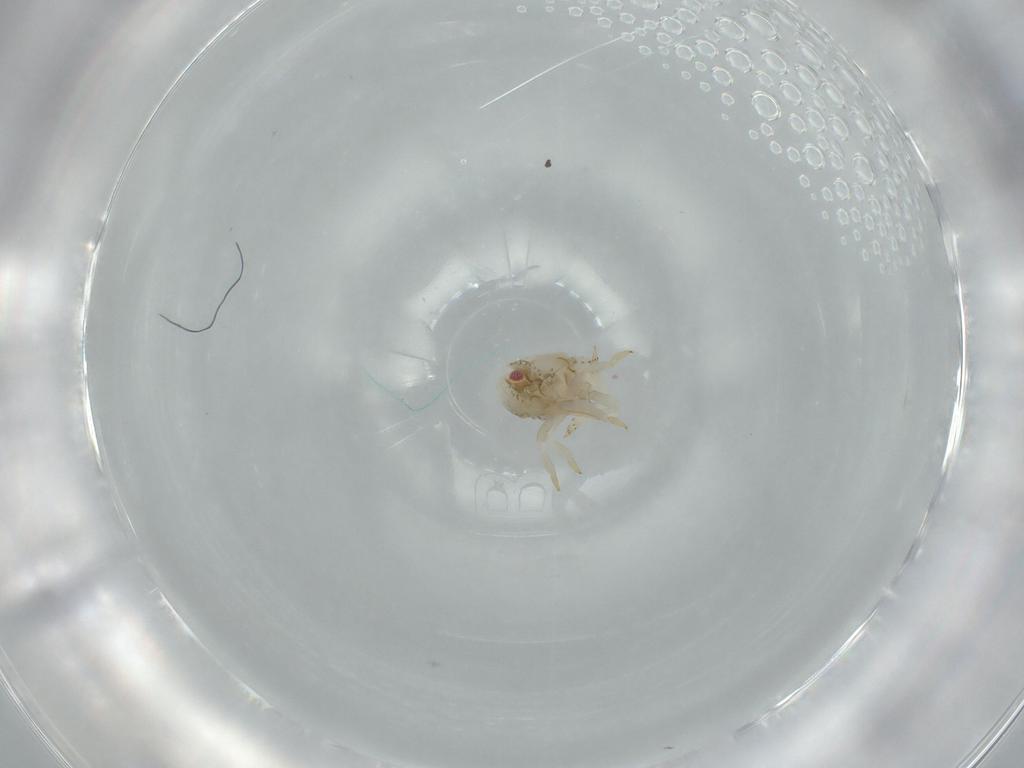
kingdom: Animalia
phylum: Arthropoda
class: Insecta
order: Hemiptera
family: Acanaloniidae
